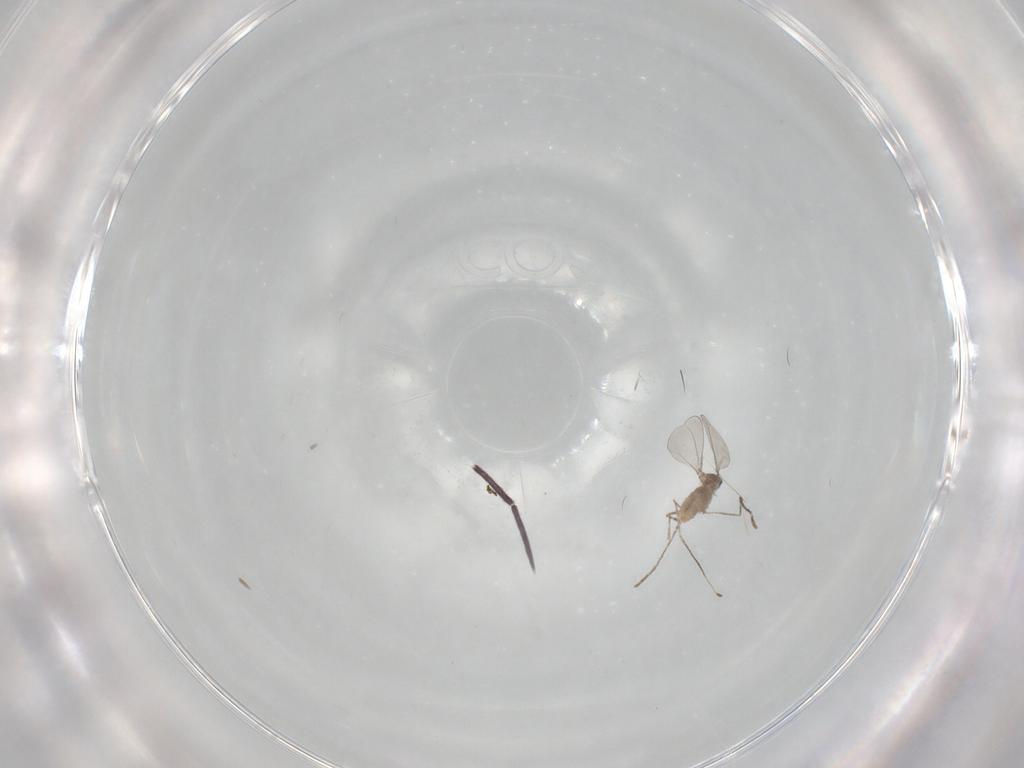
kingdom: Animalia
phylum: Arthropoda
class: Insecta
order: Diptera
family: Cecidomyiidae
